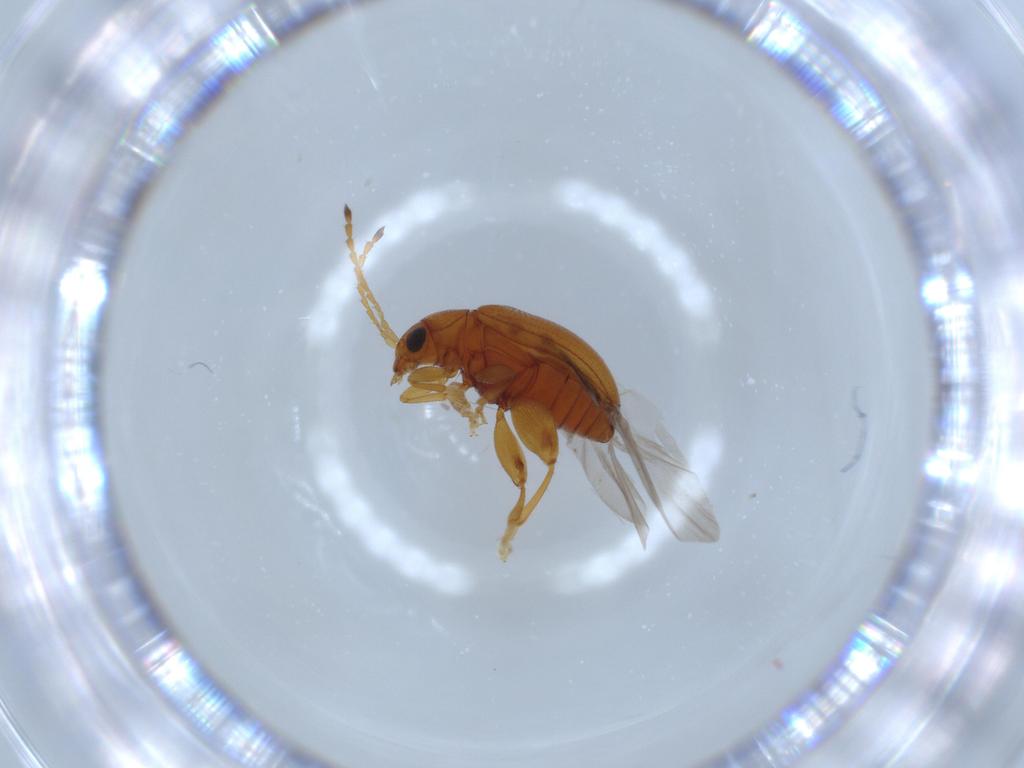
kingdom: Animalia
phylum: Arthropoda
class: Insecta
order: Coleoptera
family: Chrysomelidae
